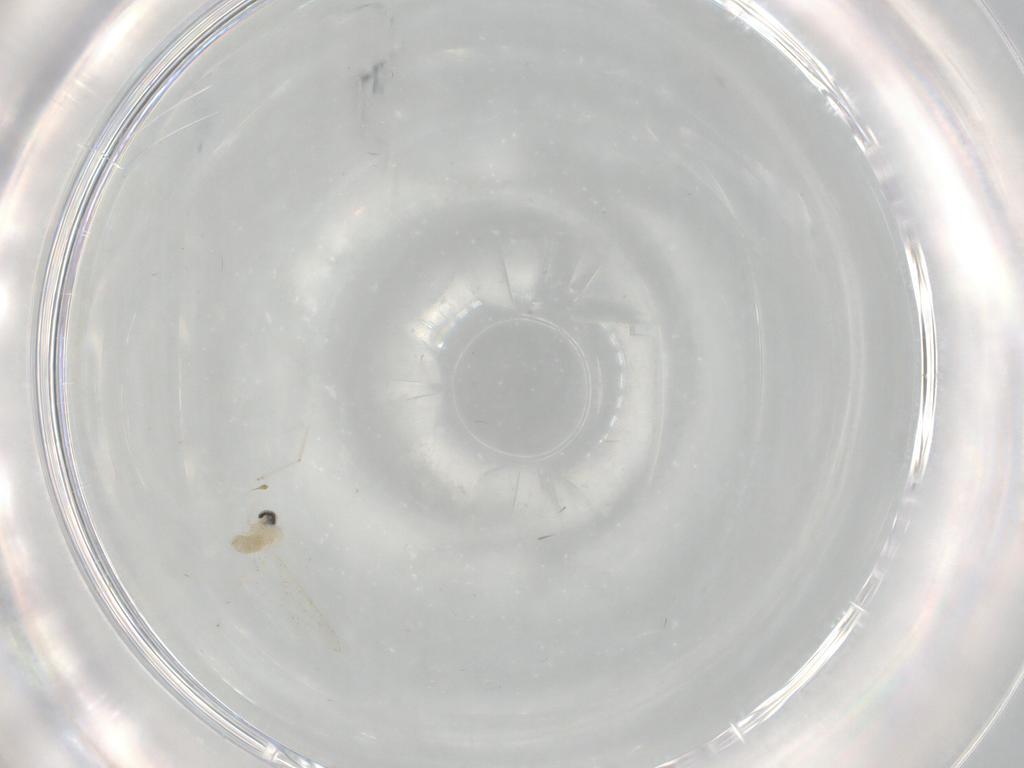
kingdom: Animalia
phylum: Arthropoda
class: Insecta
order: Diptera
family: Cecidomyiidae
